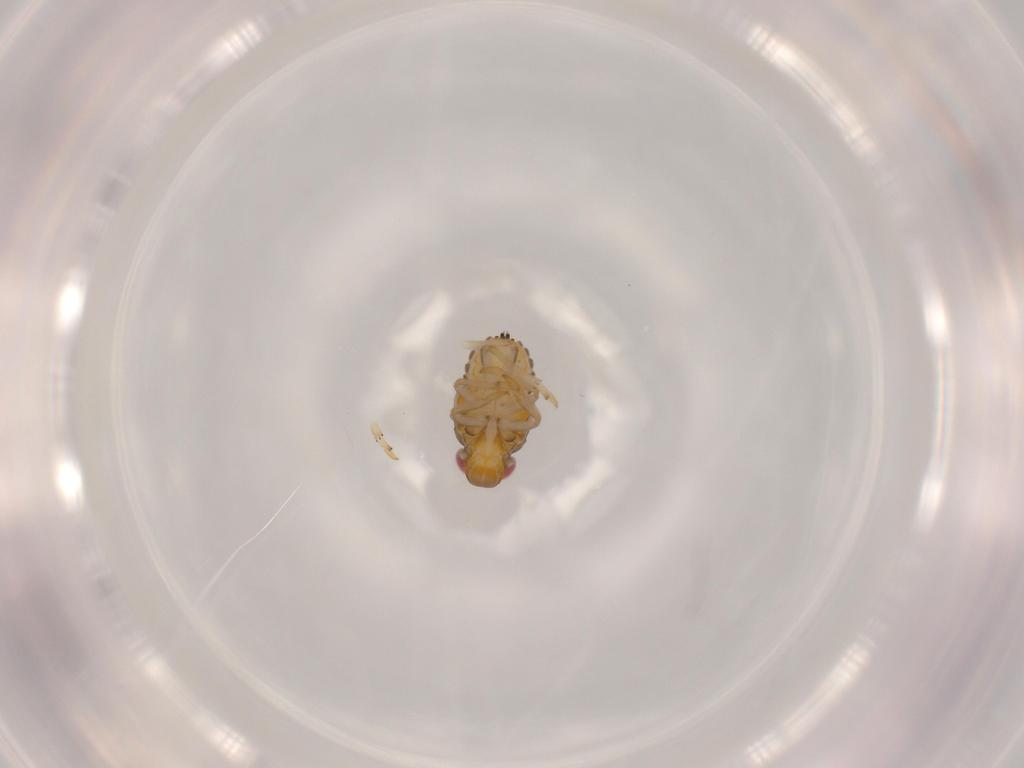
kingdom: Animalia
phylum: Arthropoda
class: Insecta
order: Hemiptera
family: Issidae
